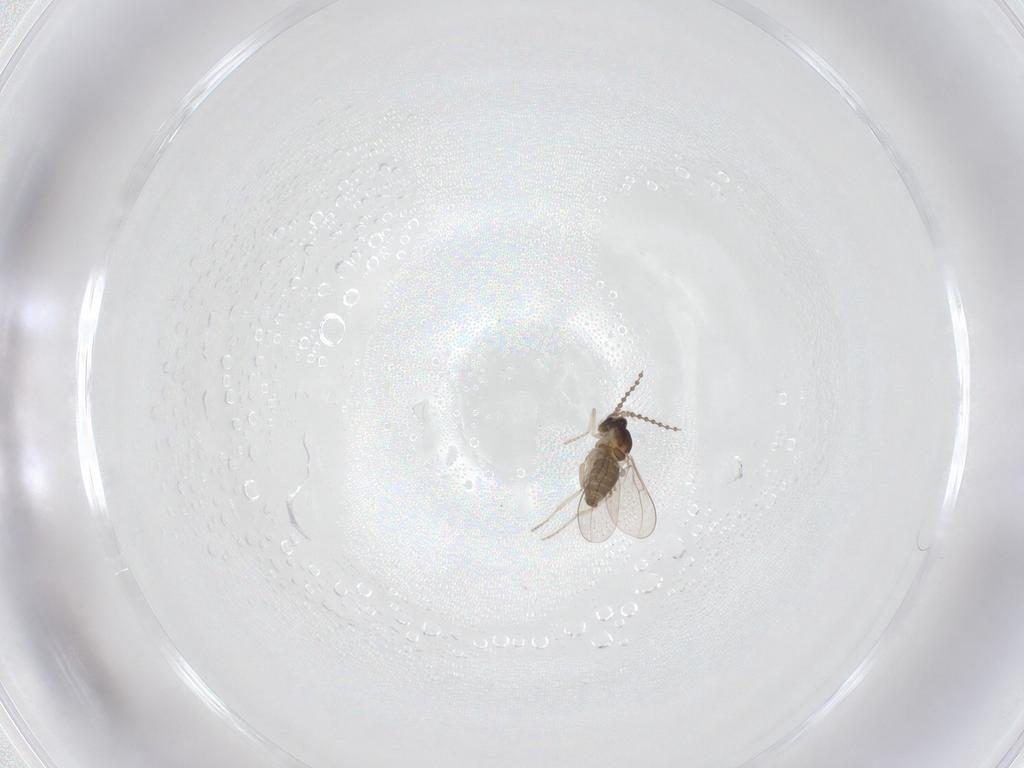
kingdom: Animalia
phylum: Arthropoda
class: Insecta
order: Diptera
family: Cecidomyiidae
